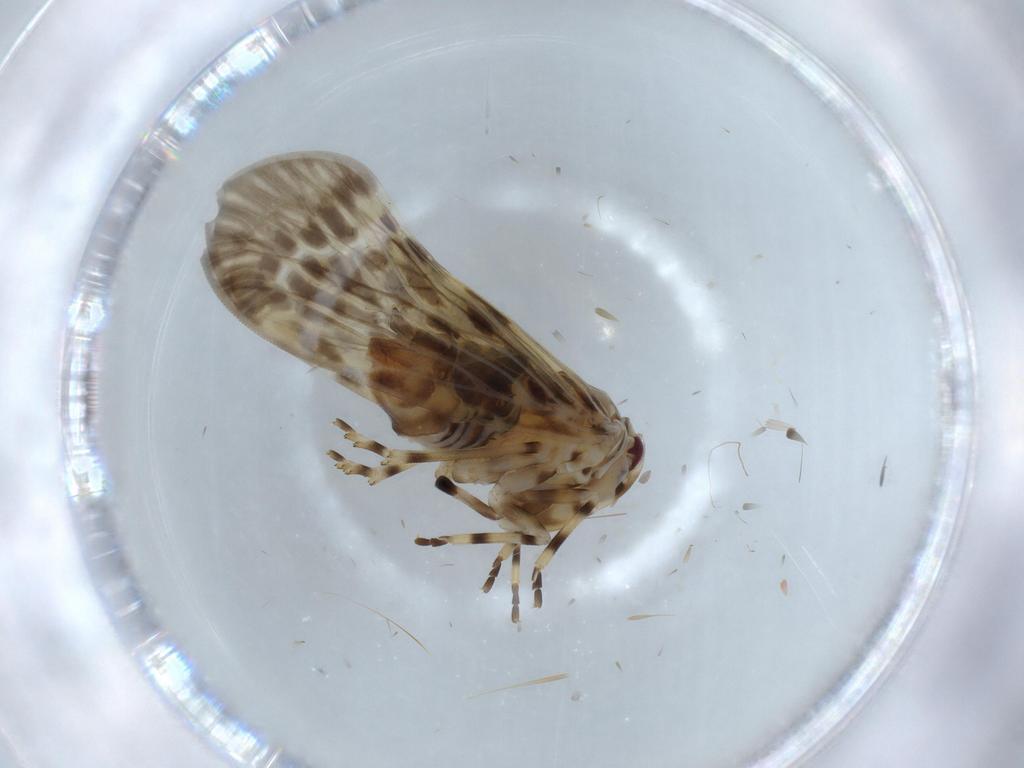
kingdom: Animalia
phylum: Arthropoda
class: Insecta
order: Hemiptera
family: Derbidae
